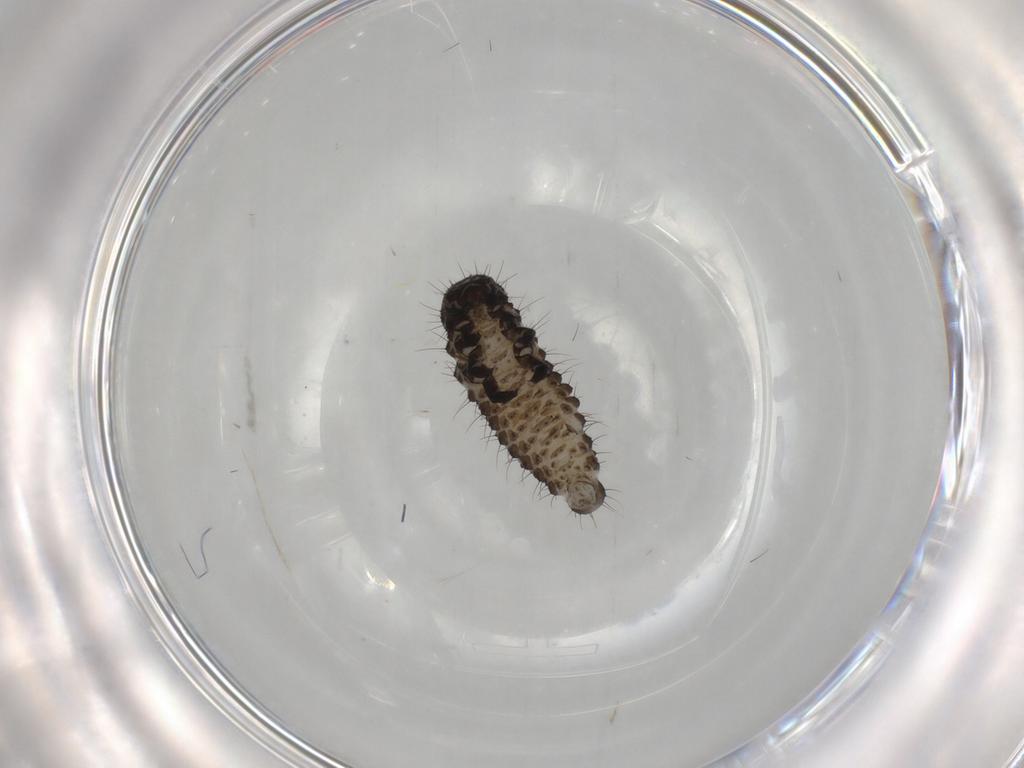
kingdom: Animalia
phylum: Arthropoda
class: Insecta
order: Coleoptera
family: Chrysomelidae
